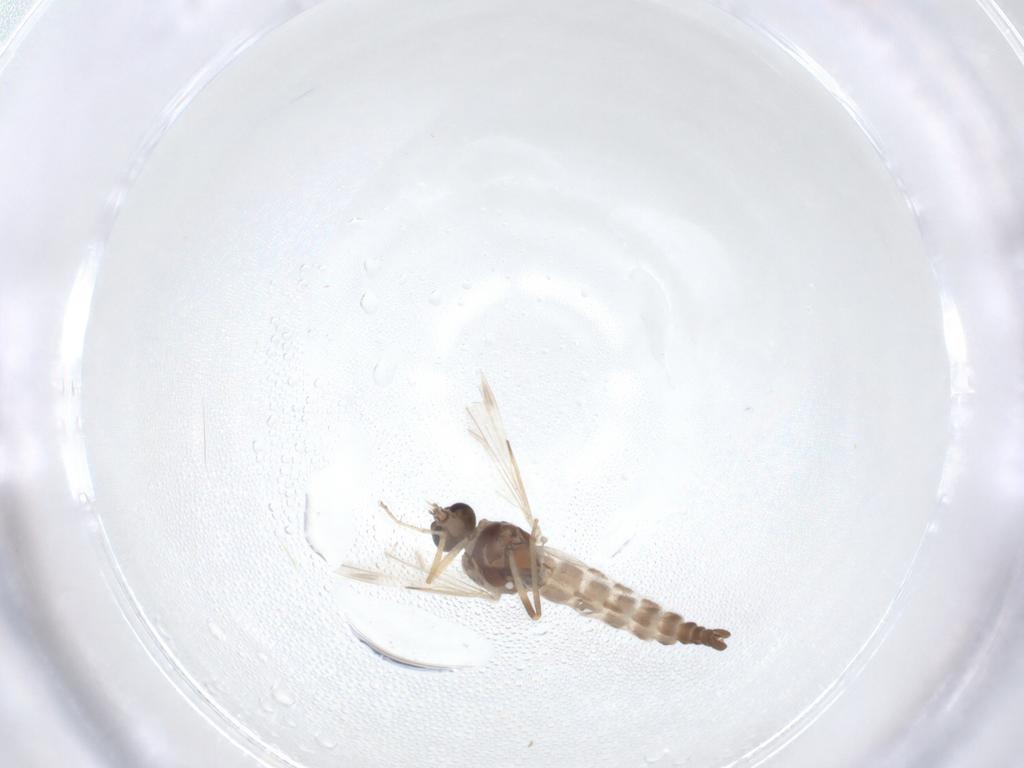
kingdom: Animalia
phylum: Arthropoda
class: Insecta
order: Diptera
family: Ceratopogonidae
